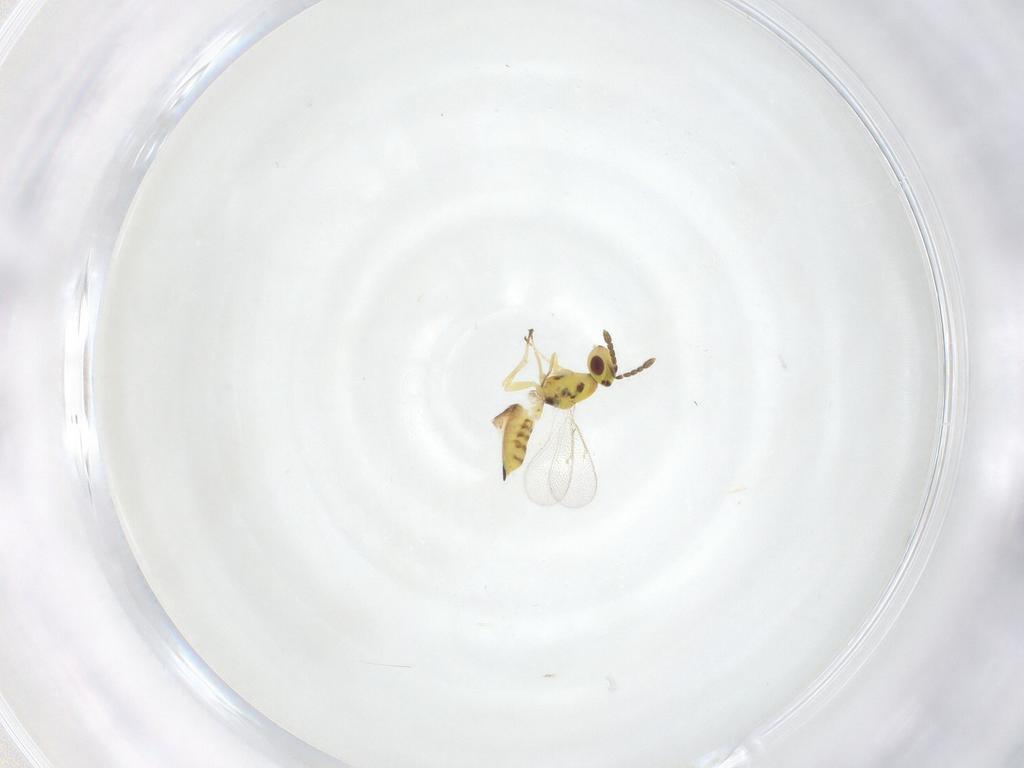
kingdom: Animalia
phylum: Arthropoda
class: Insecta
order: Hymenoptera
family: Eulophidae
